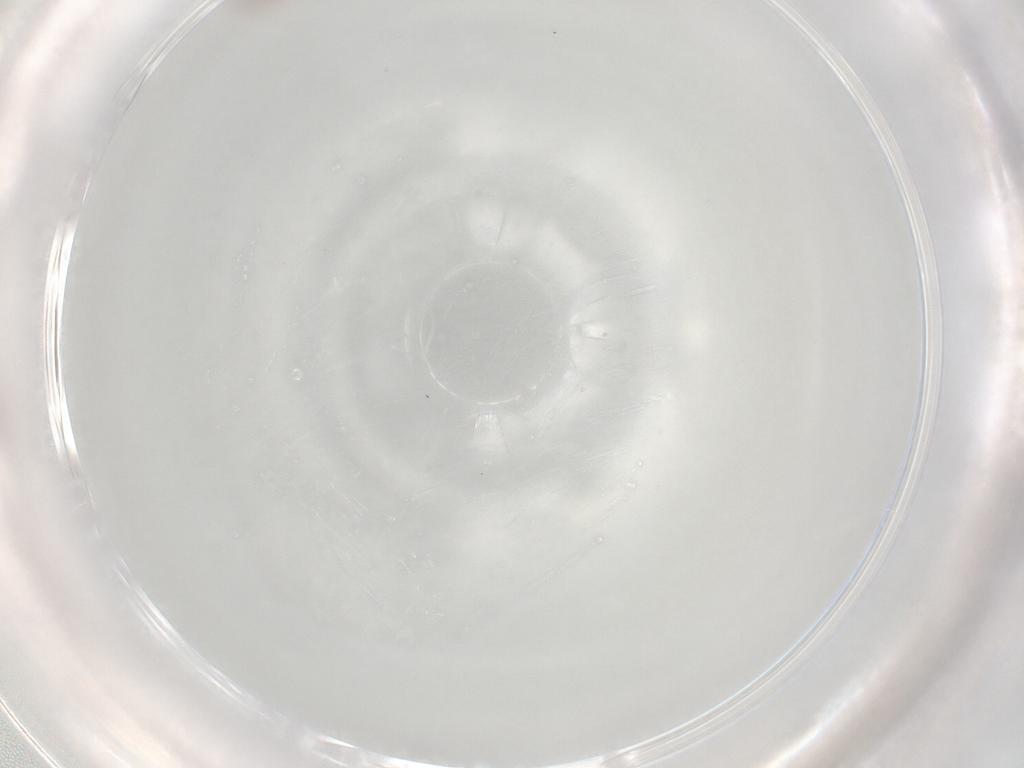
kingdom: Animalia
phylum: Arthropoda
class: Arachnida
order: Sarcoptiformes
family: Eremaeidae
